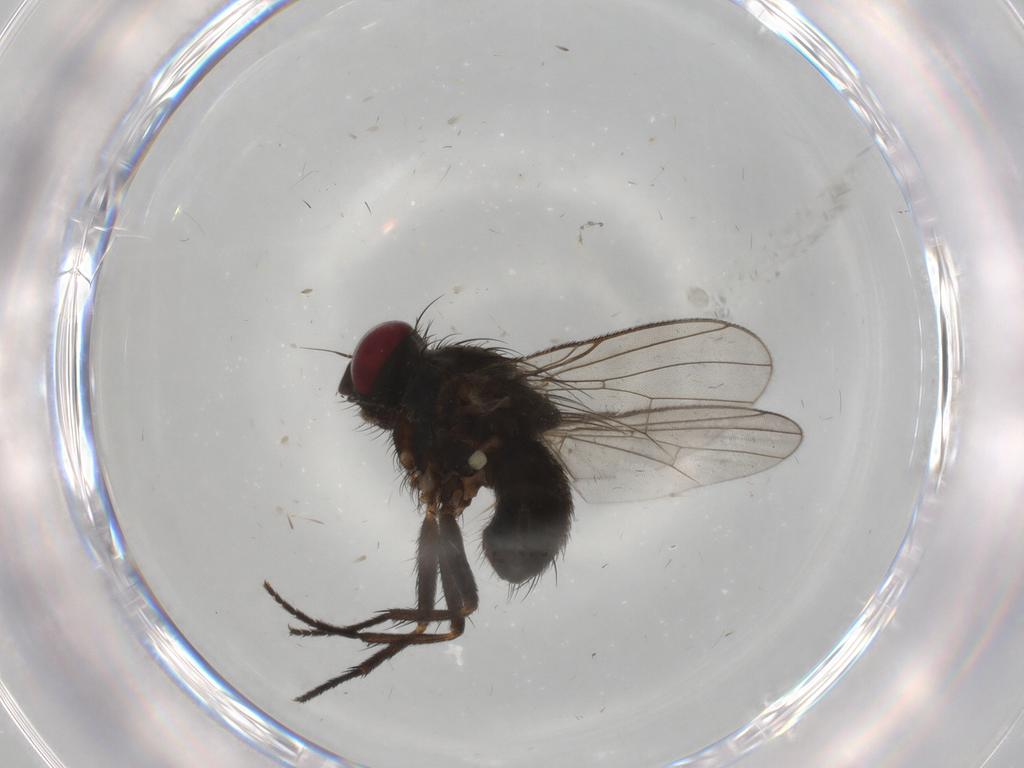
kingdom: Animalia
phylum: Arthropoda
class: Insecta
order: Diptera
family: Muscidae
